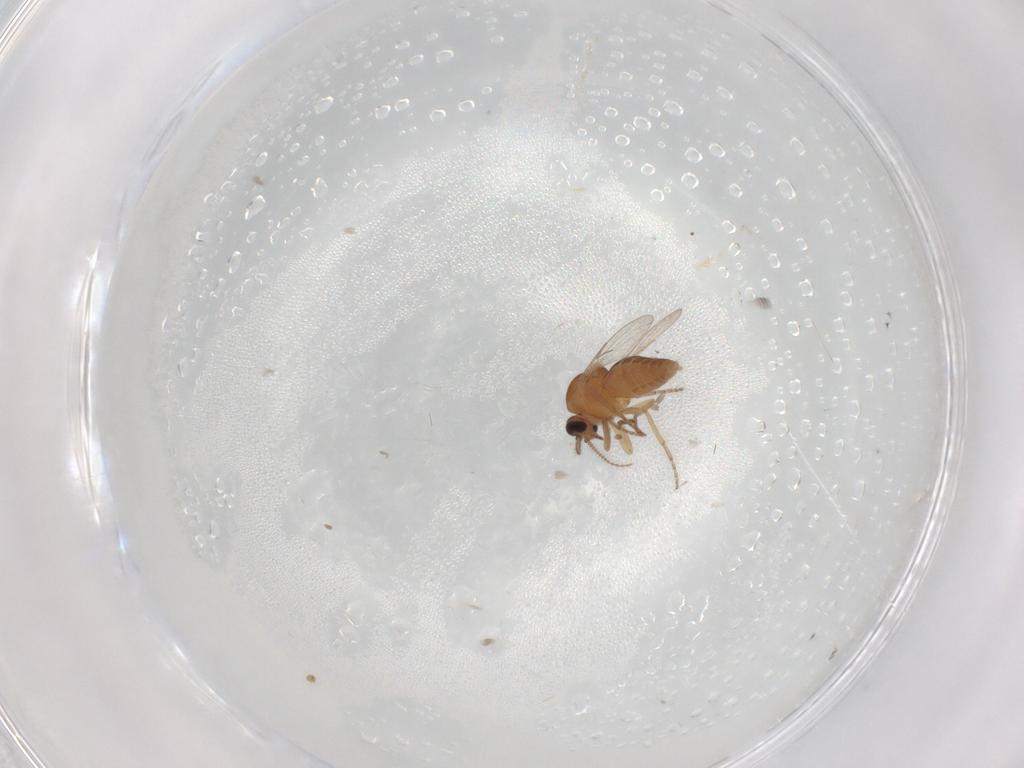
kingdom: Animalia
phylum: Arthropoda
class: Insecta
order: Diptera
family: Ceratopogonidae
